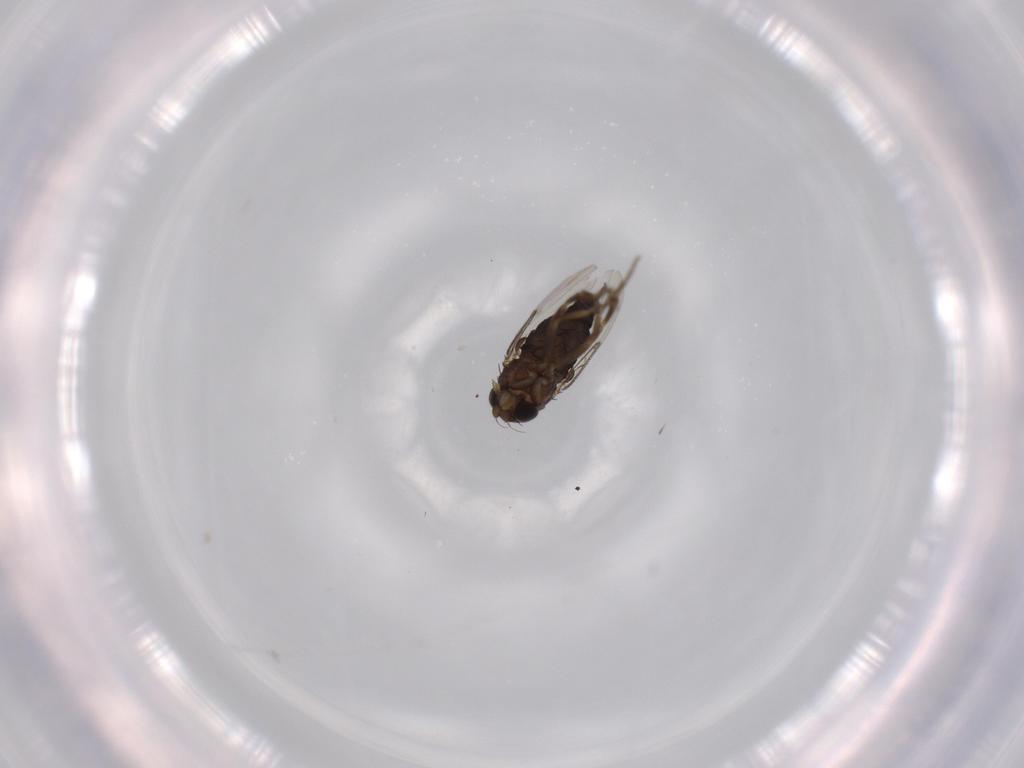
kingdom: Animalia
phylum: Arthropoda
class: Insecta
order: Diptera
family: Phoridae
